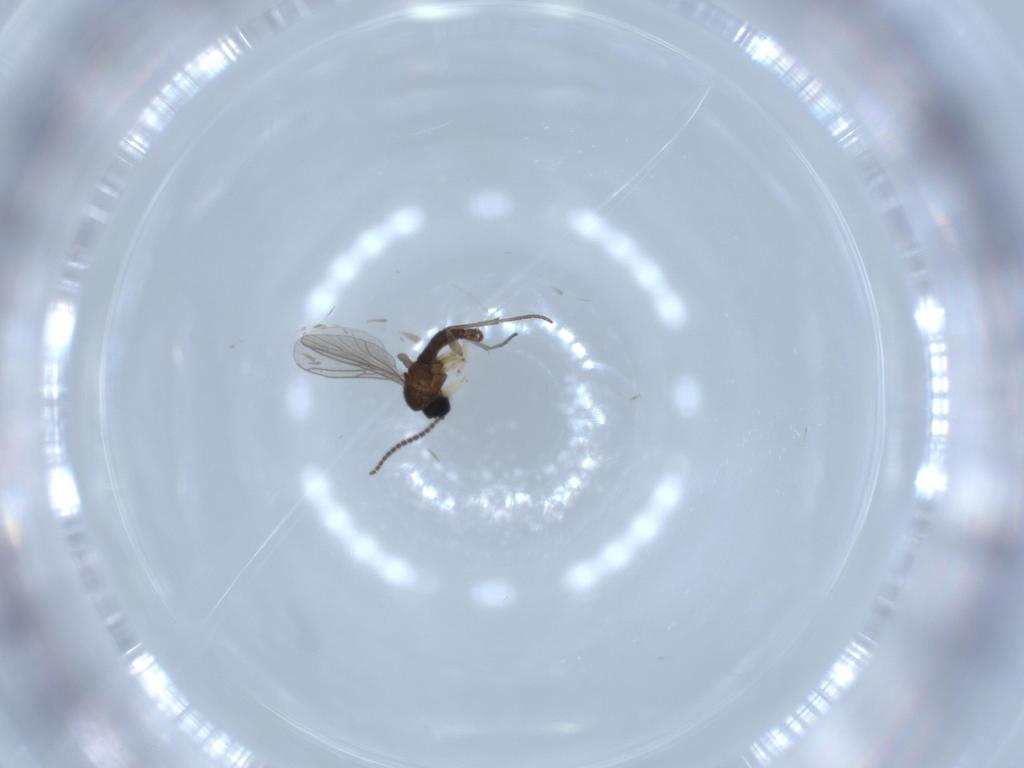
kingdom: Animalia
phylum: Arthropoda
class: Insecta
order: Diptera
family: Sciaridae
